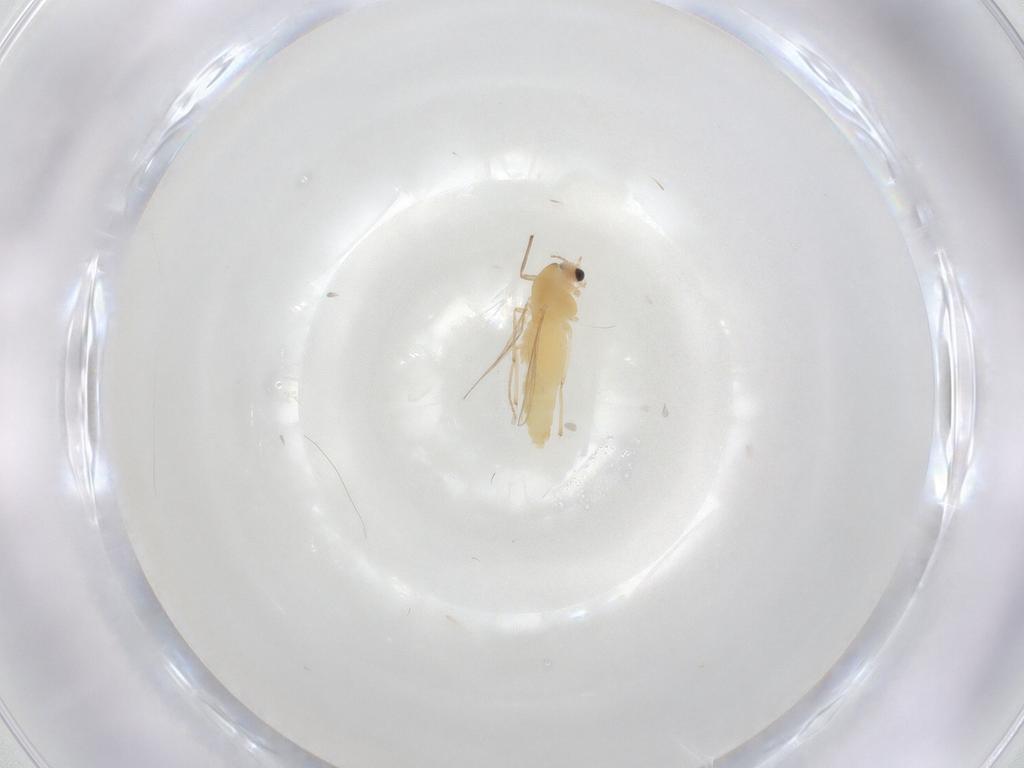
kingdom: Animalia
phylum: Arthropoda
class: Insecta
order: Diptera
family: Chironomidae
